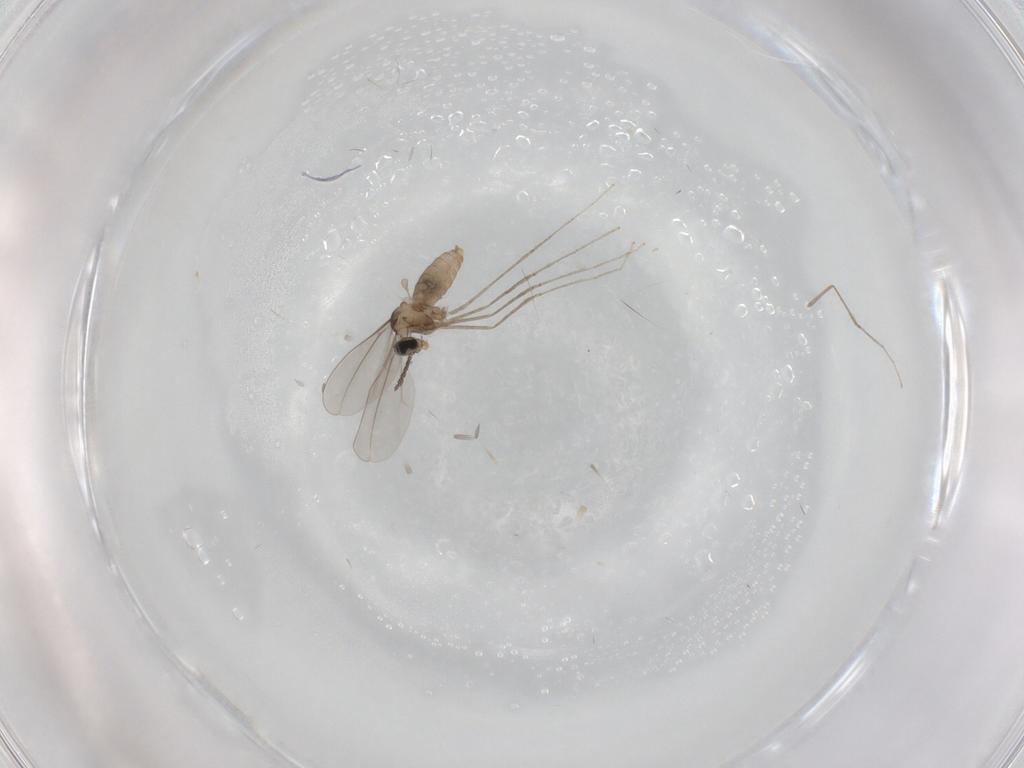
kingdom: Animalia
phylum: Arthropoda
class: Insecta
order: Diptera
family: Cecidomyiidae
